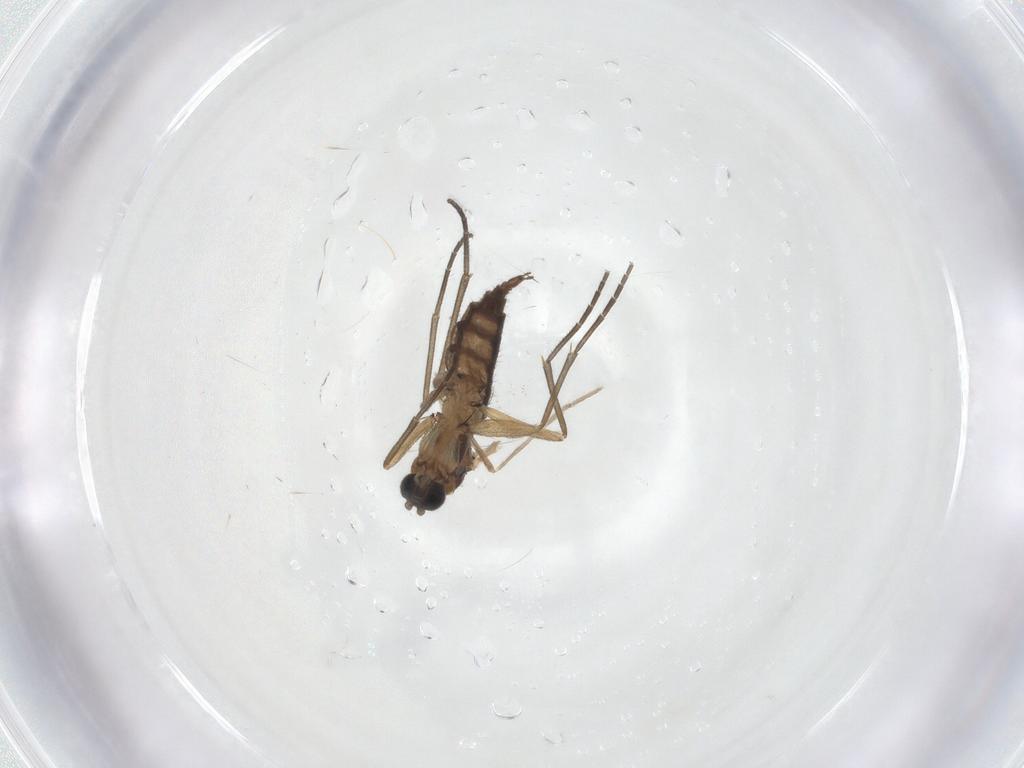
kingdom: Animalia
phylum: Arthropoda
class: Insecta
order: Diptera
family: Cecidomyiidae
